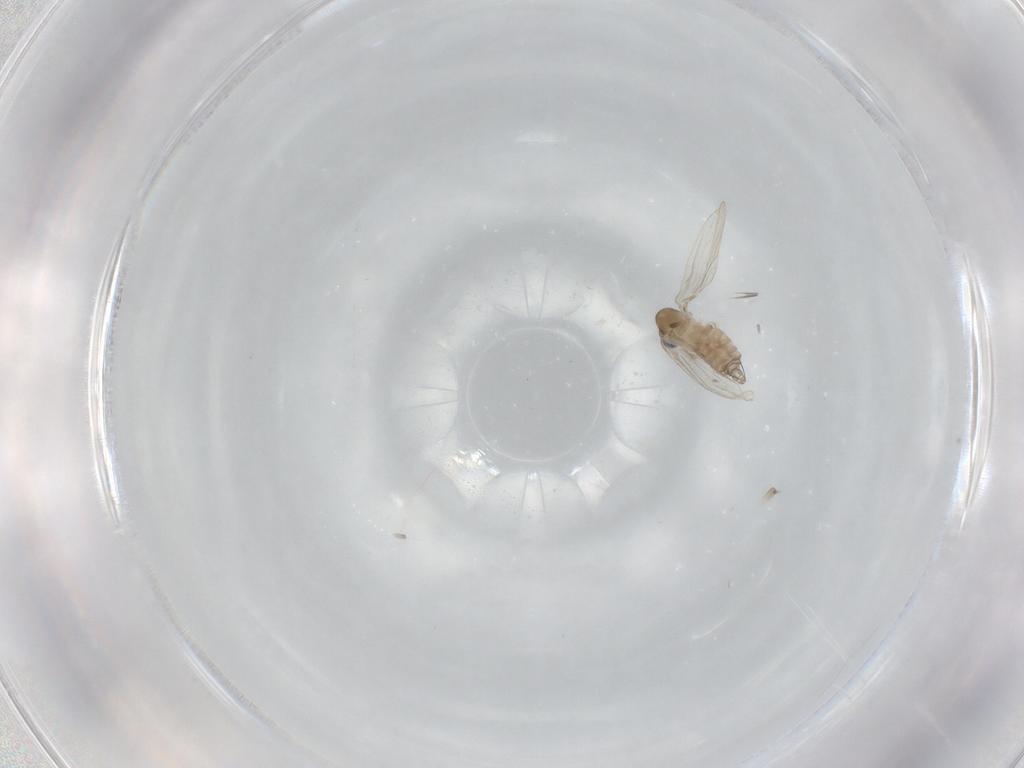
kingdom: Animalia
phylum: Arthropoda
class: Insecta
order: Diptera
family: Psychodidae
